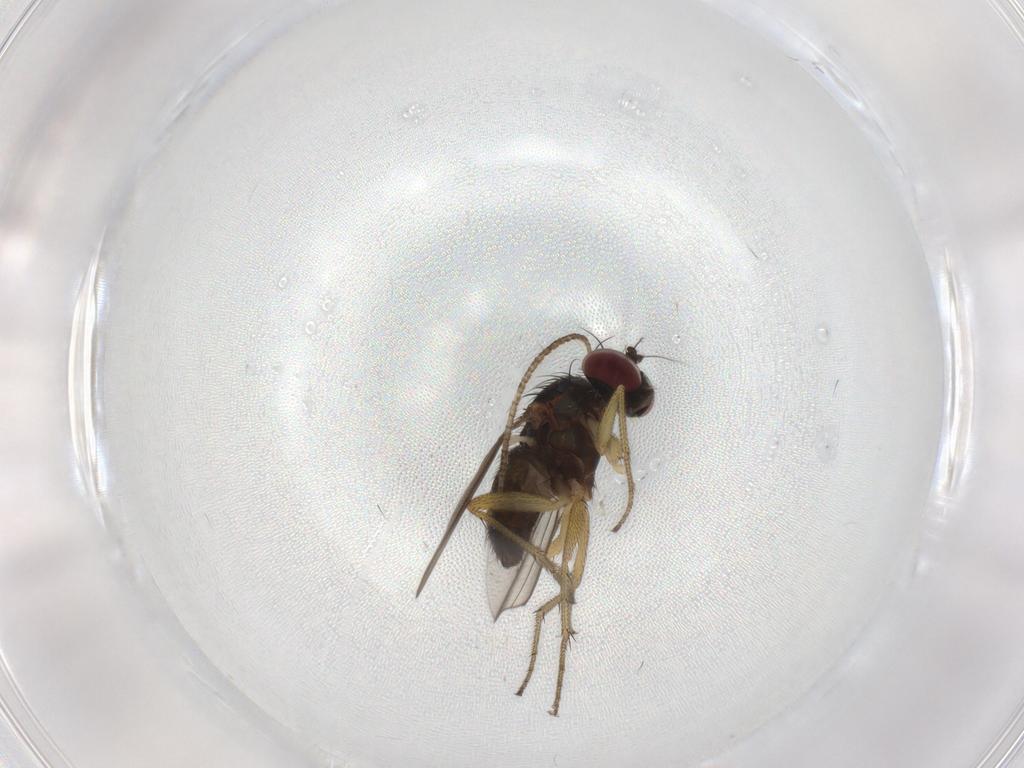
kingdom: Animalia
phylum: Arthropoda
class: Insecta
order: Diptera
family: Dolichopodidae
